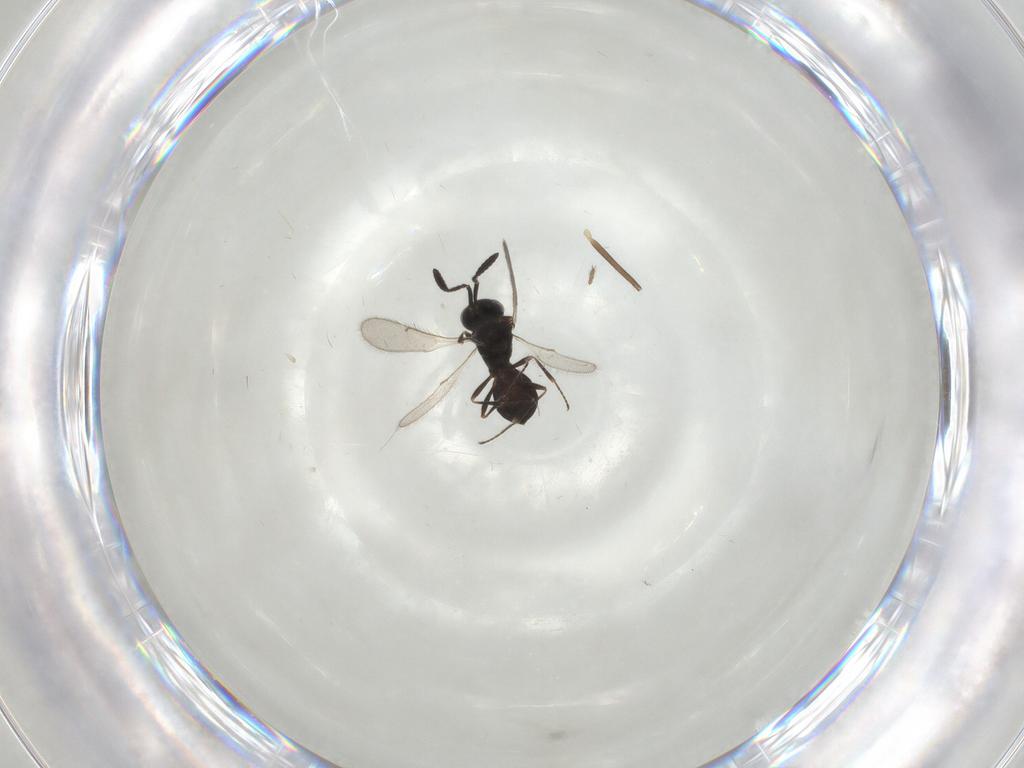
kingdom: Animalia
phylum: Arthropoda
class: Insecta
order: Hymenoptera
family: Scelionidae
